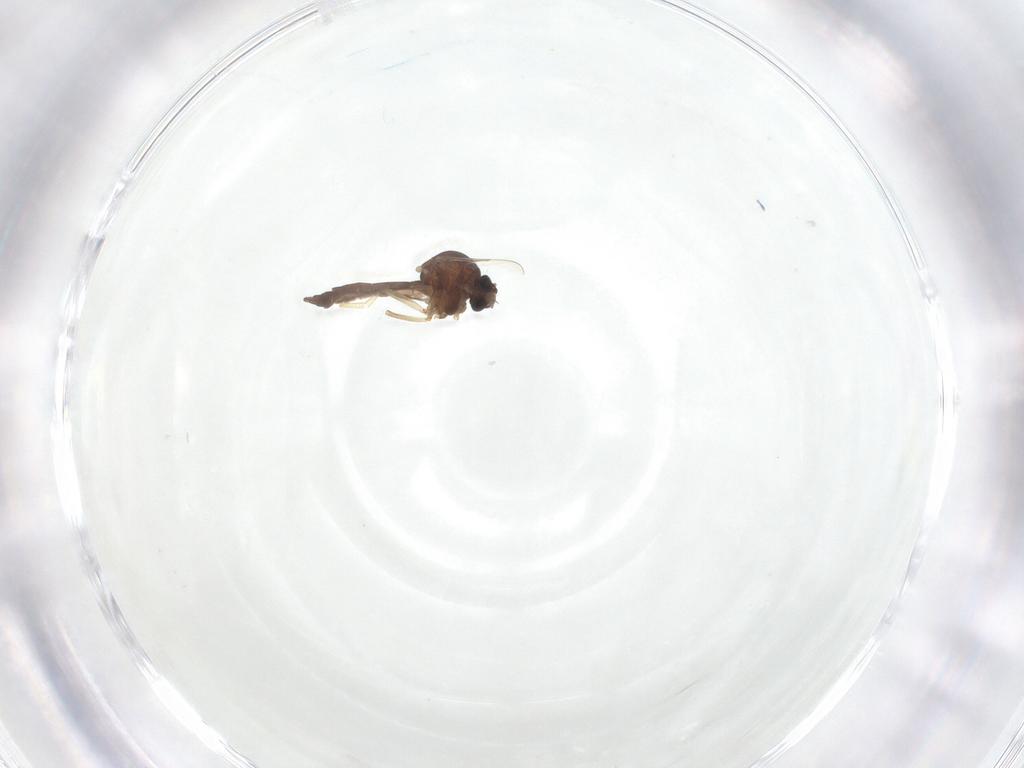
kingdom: Animalia
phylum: Arthropoda
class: Insecta
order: Diptera
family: Ceratopogonidae
